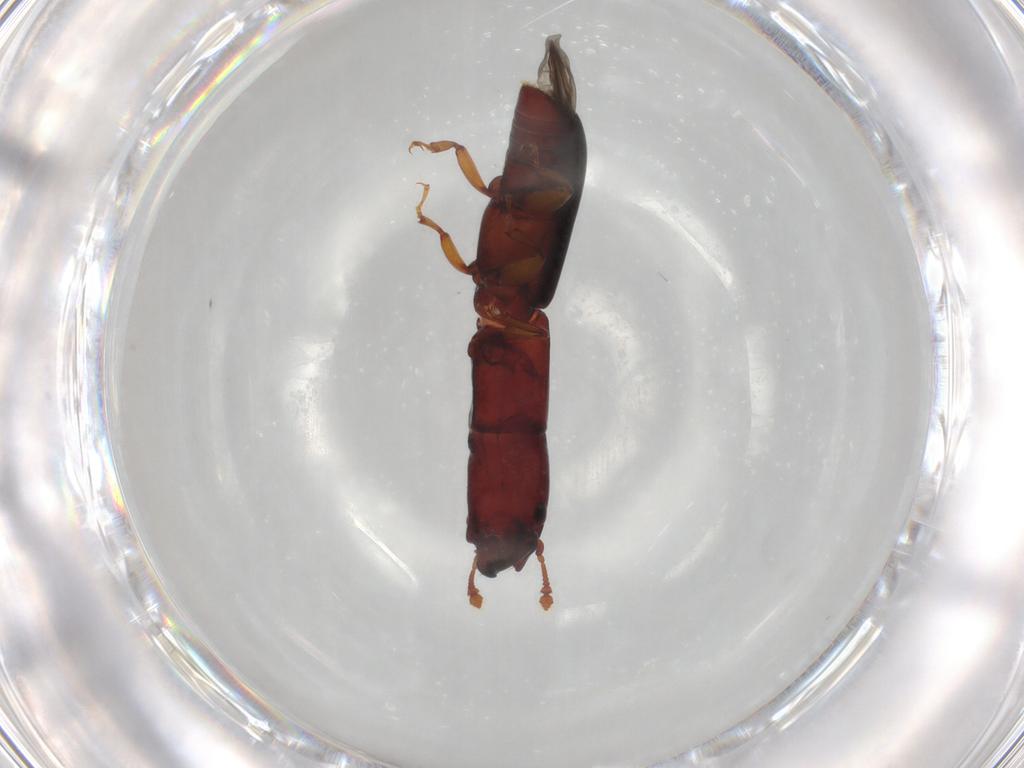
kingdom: Animalia
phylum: Arthropoda
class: Insecta
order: Coleoptera
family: Monotomidae
